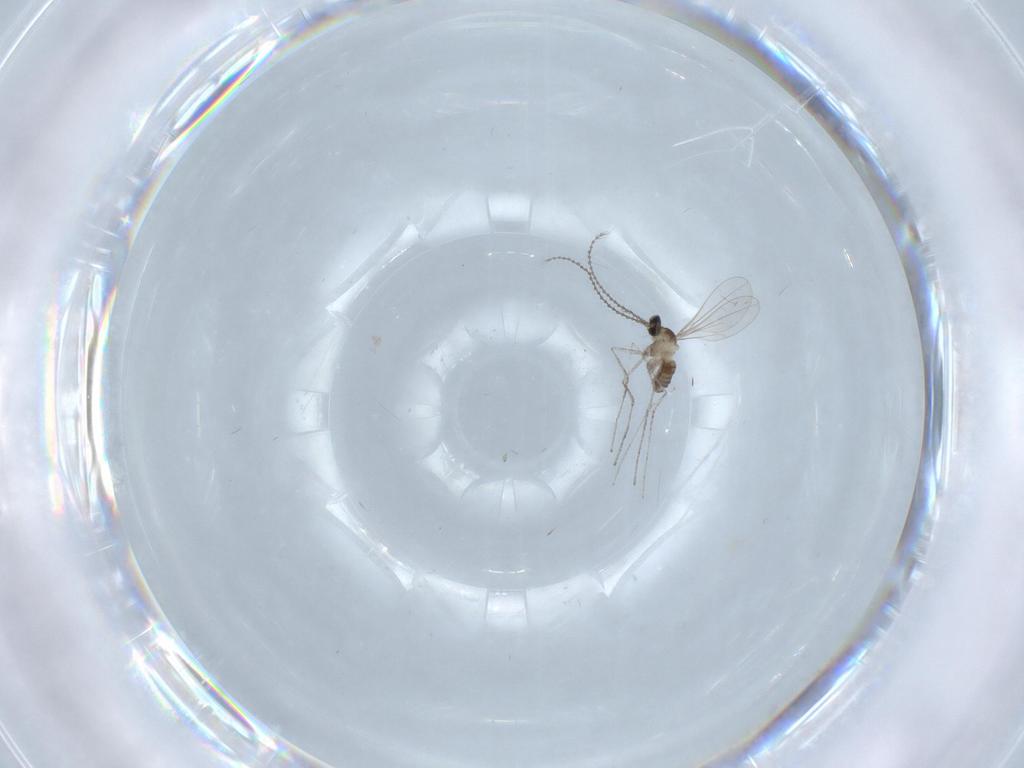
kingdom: Animalia
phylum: Arthropoda
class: Insecta
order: Diptera
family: Cecidomyiidae
